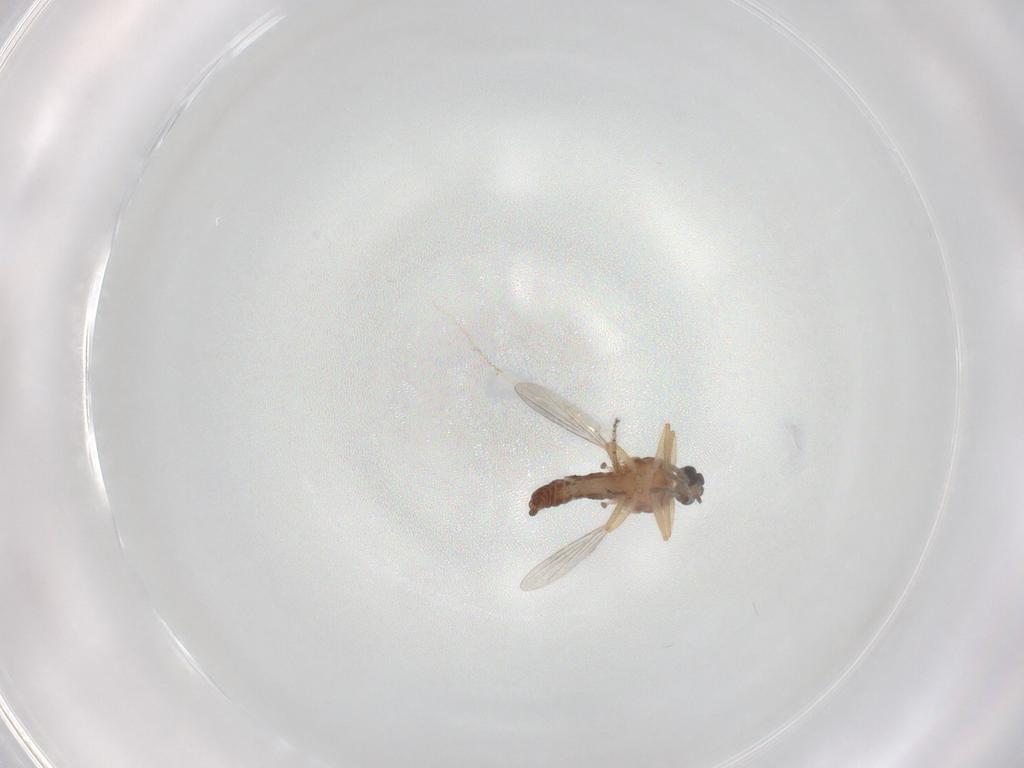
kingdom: Animalia
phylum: Arthropoda
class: Insecta
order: Diptera
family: Ceratopogonidae
